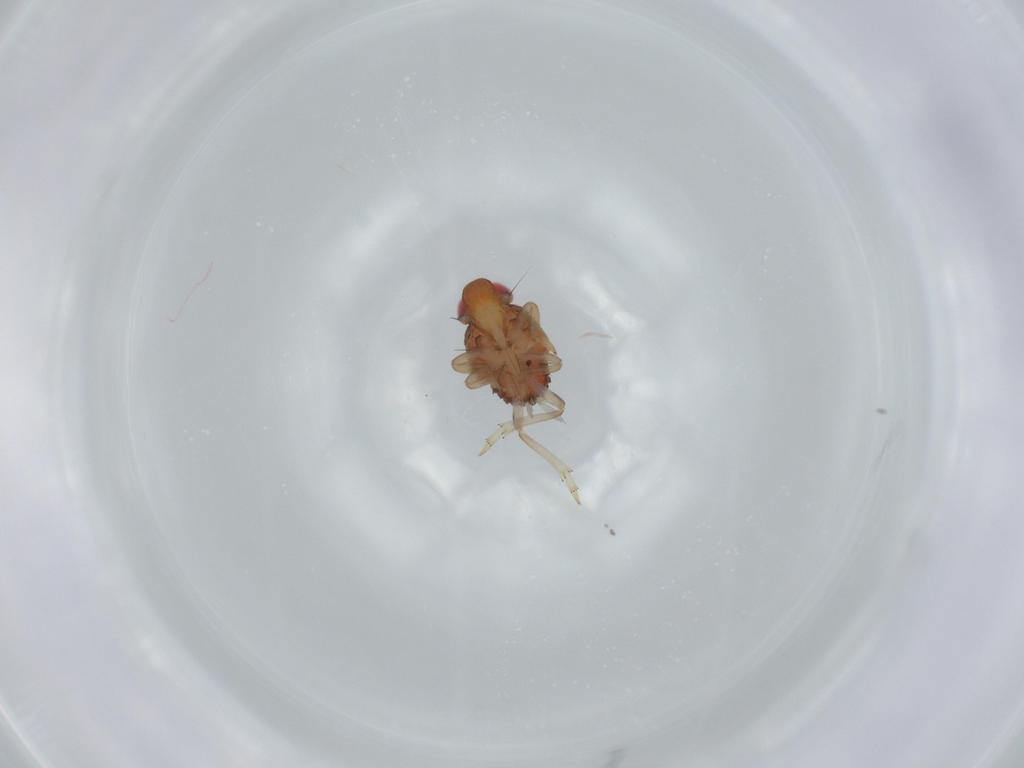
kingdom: Animalia
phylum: Arthropoda
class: Insecta
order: Hemiptera
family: Issidae
